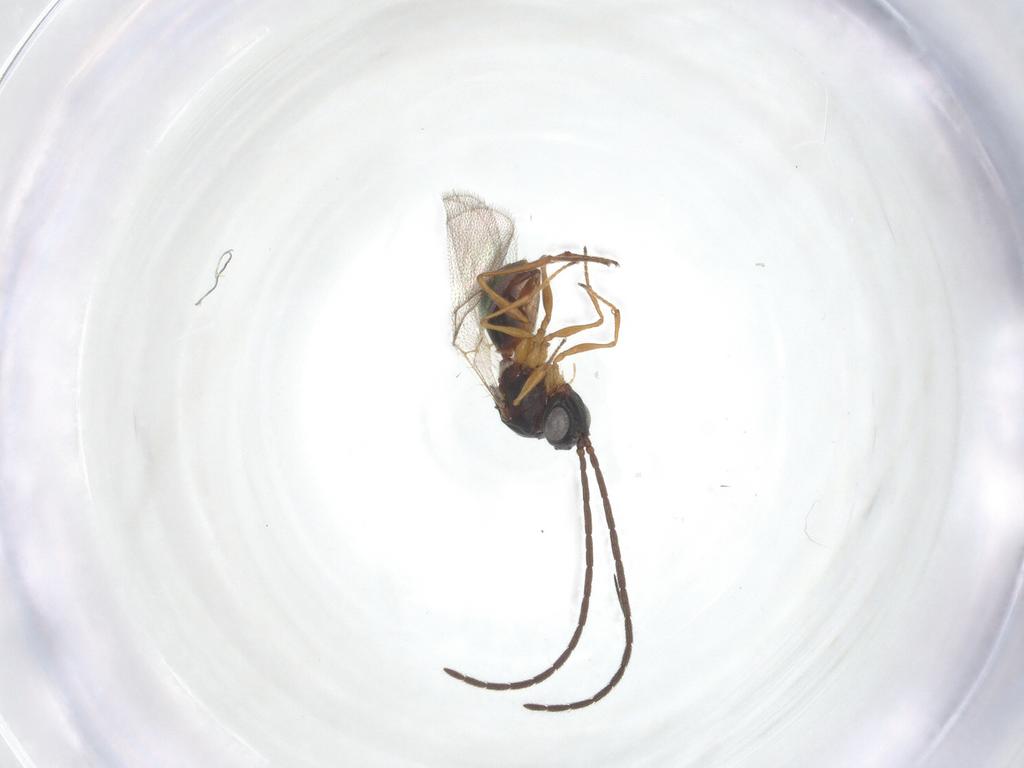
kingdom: Animalia
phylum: Arthropoda
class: Insecta
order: Hymenoptera
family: Figitidae
